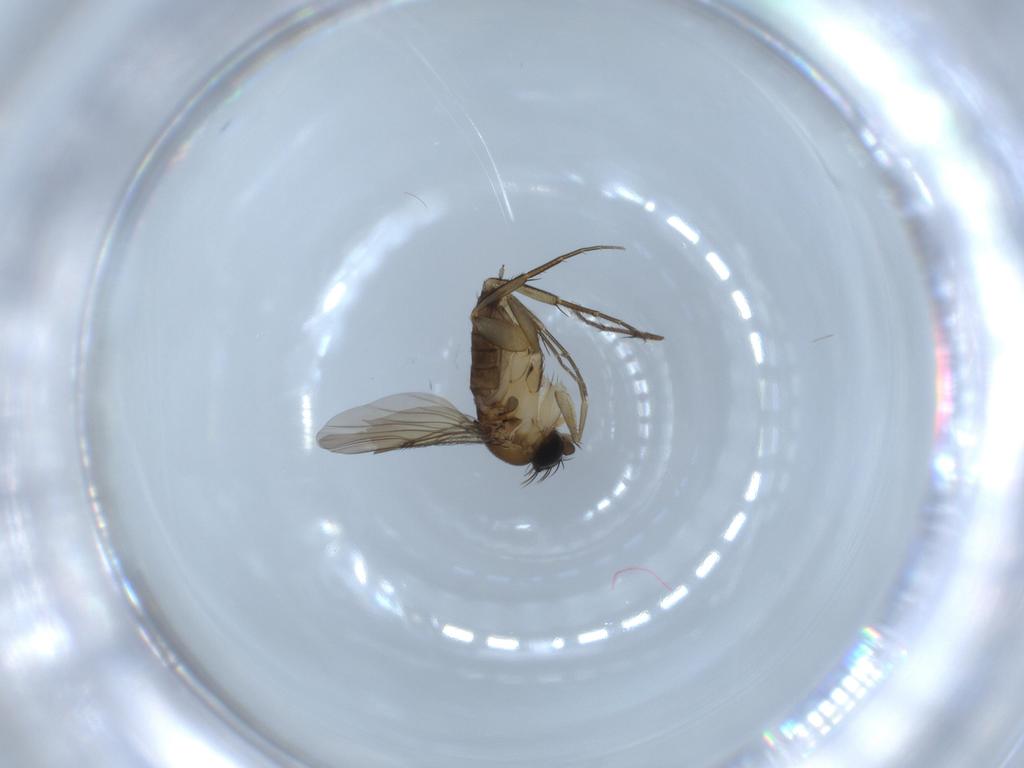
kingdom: Animalia
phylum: Arthropoda
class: Insecta
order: Diptera
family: Ceratopogonidae
